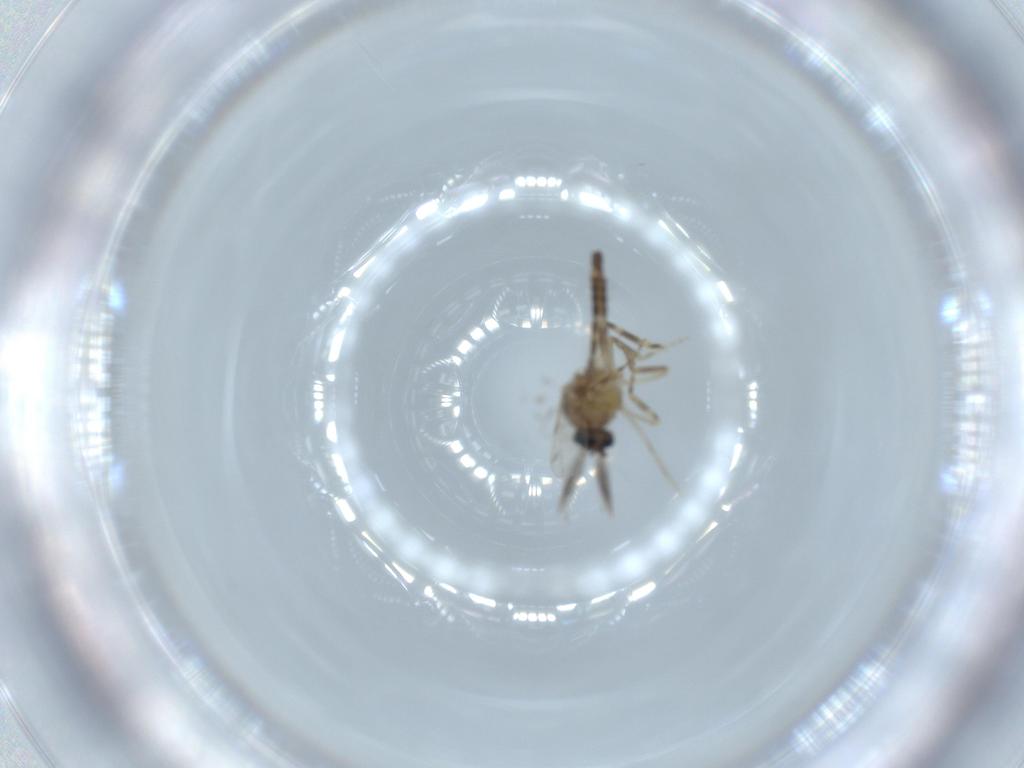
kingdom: Animalia
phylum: Arthropoda
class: Insecta
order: Diptera
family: Ceratopogonidae
